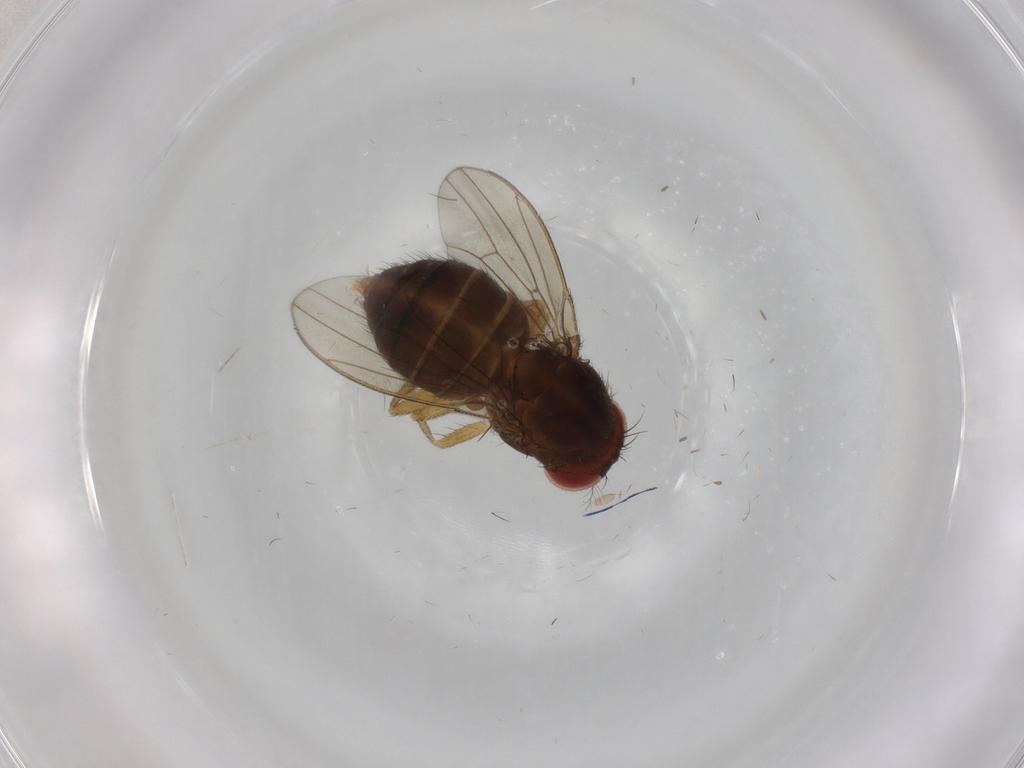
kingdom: Animalia
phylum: Arthropoda
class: Insecta
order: Diptera
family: Drosophilidae
